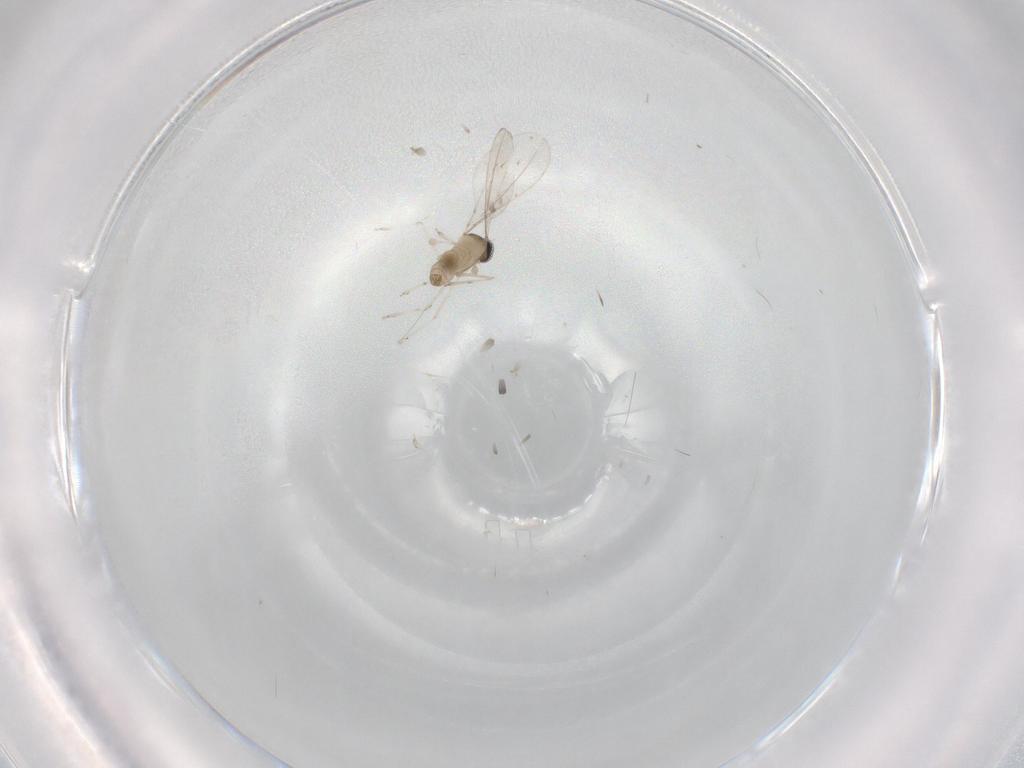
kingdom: Animalia
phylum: Arthropoda
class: Insecta
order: Diptera
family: Cecidomyiidae
